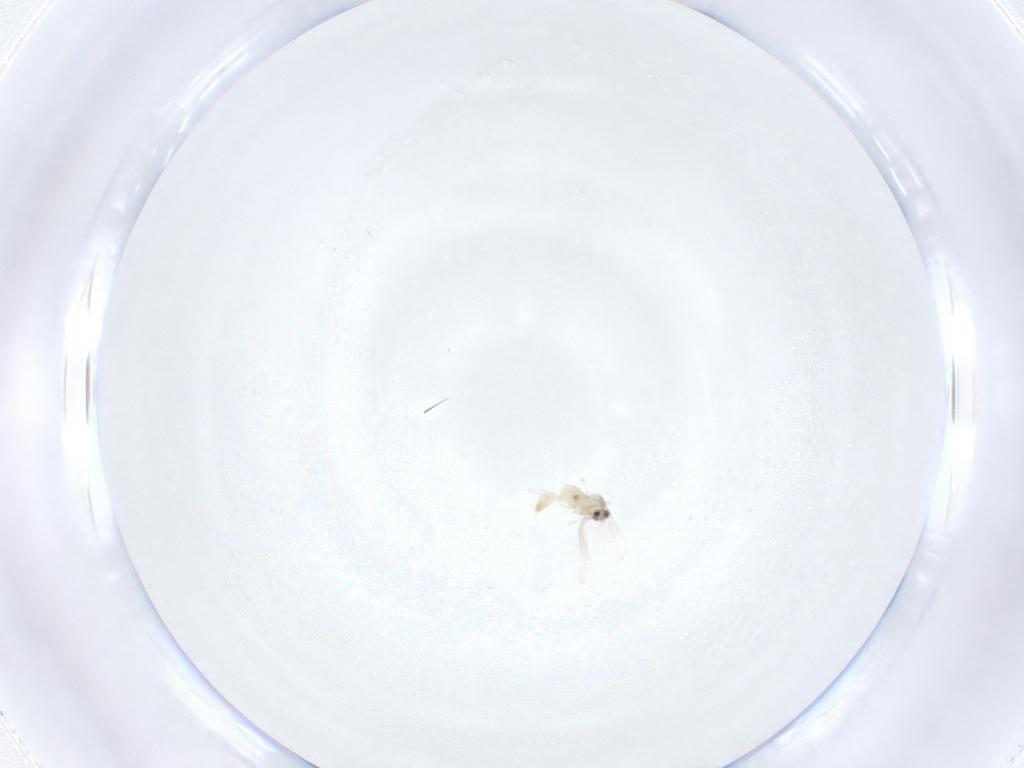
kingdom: Animalia
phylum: Arthropoda
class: Insecta
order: Diptera
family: Cecidomyiidae
